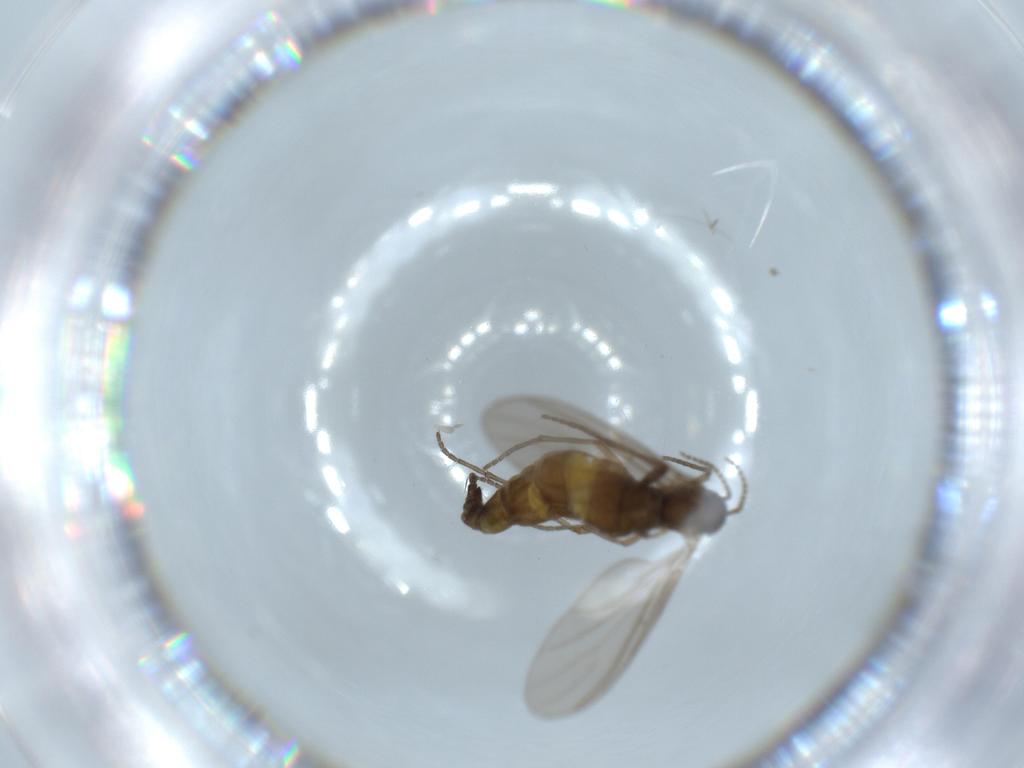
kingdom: Animalia
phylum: Arthropoda
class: Insecta
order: Diptera
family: Sciaridae
